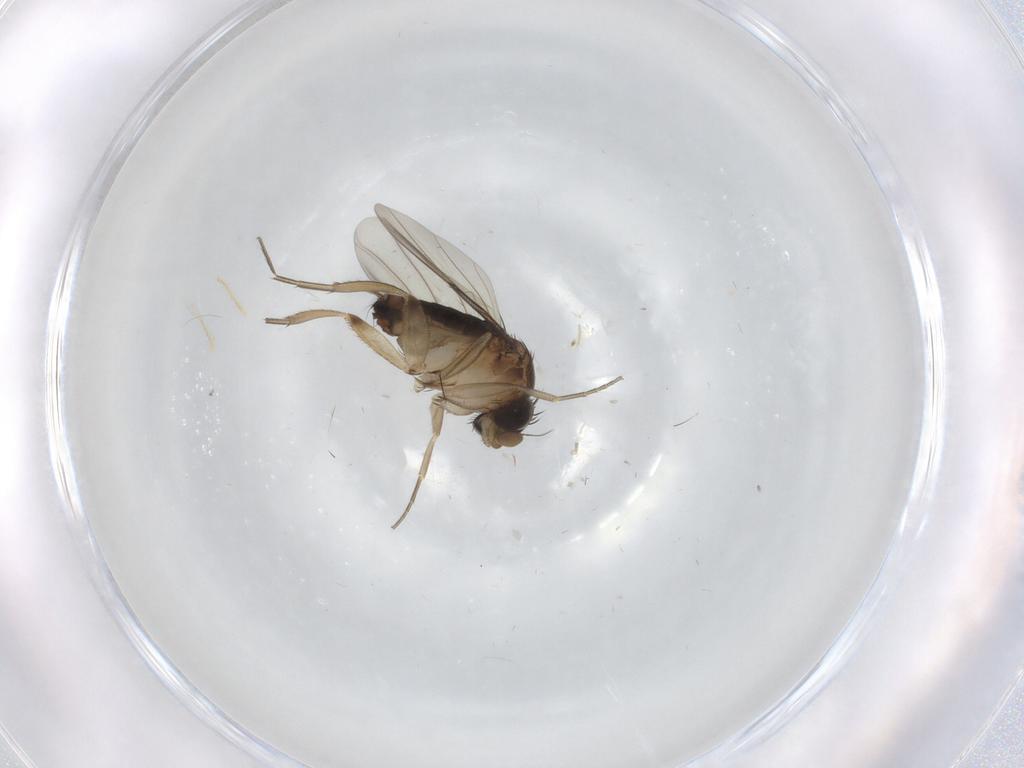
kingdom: Animalia
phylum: Arthropoda
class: Insecta
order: Diptera
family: Phoridae
